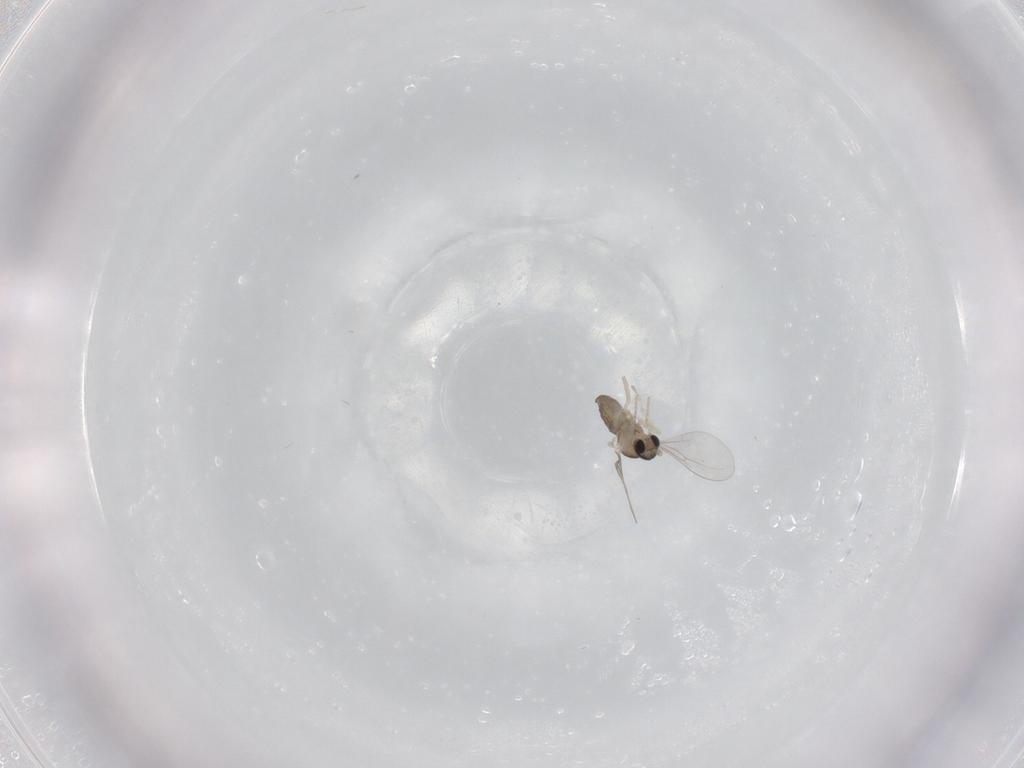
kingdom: Animalia
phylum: Arthropoda
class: Insecta
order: Diptera
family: Cecidomyiidae
